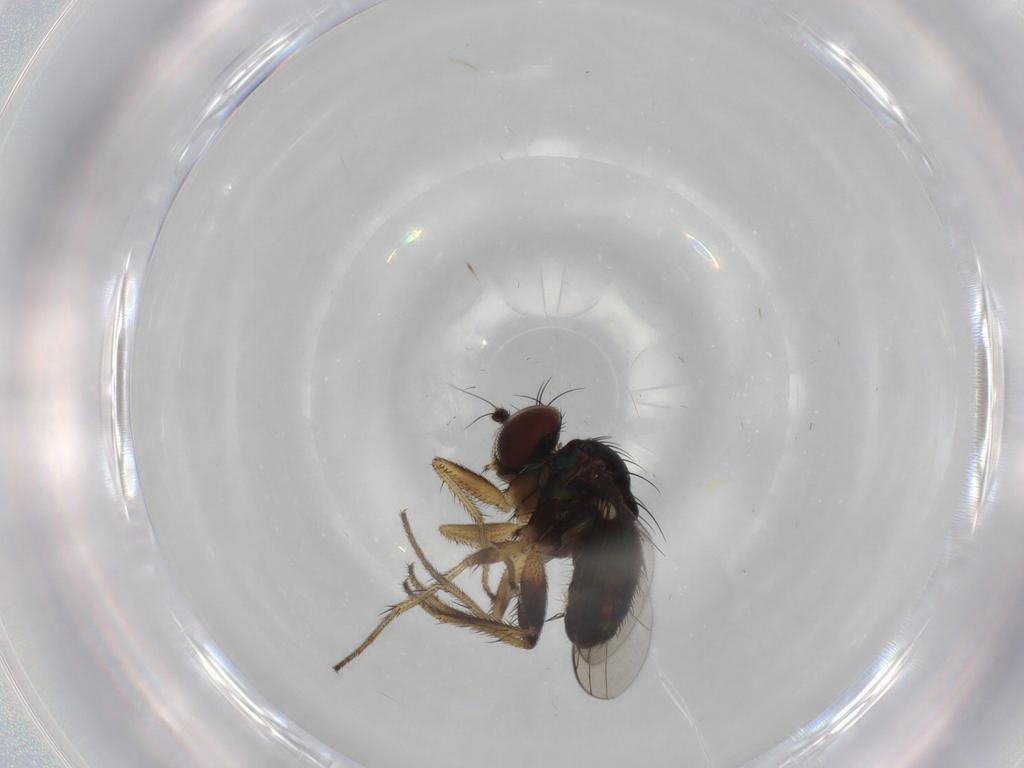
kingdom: Animalia
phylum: Arthropoda
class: Insecta
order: Diptera
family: Dolichopodidae
